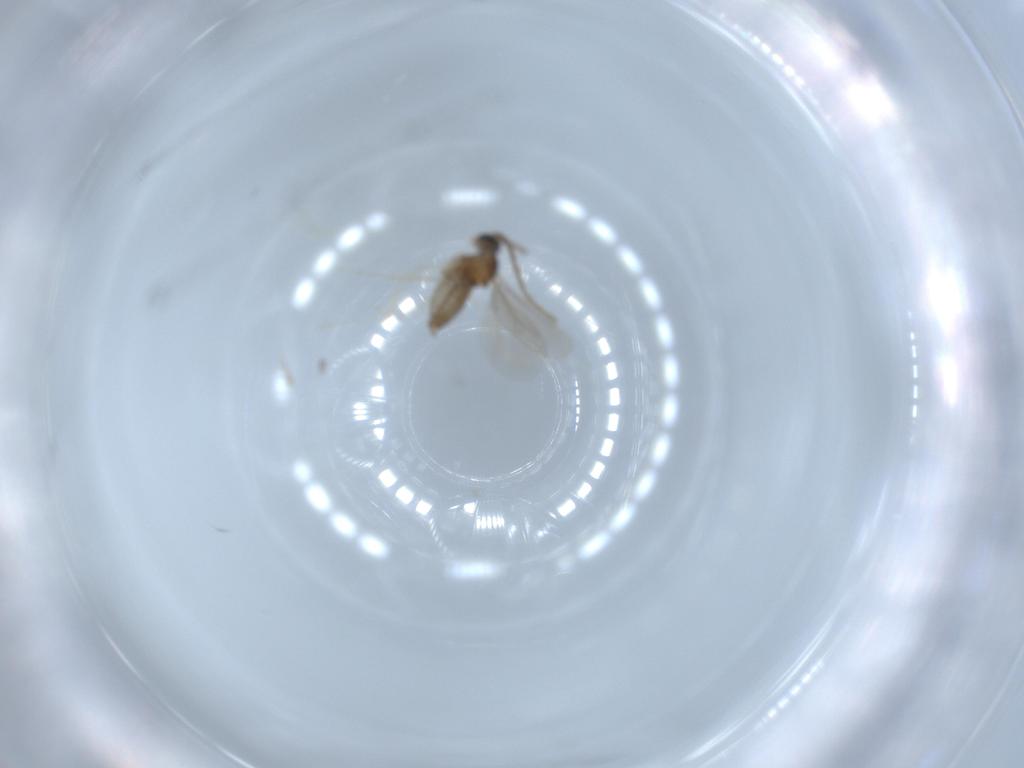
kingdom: Animalia
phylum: Arthropoda
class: Insecta
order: Diptera
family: Cecidomyiidae
